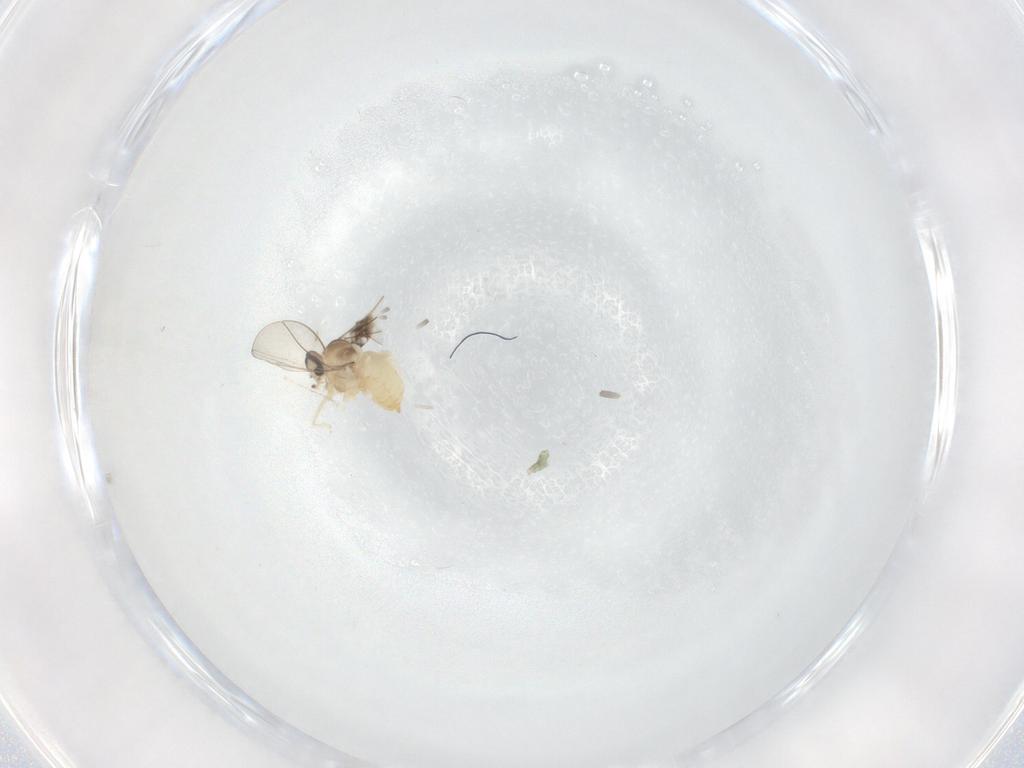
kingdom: Animalia
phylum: Arthropoda
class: Insecta
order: Diptera
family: Cecidomyiidae
